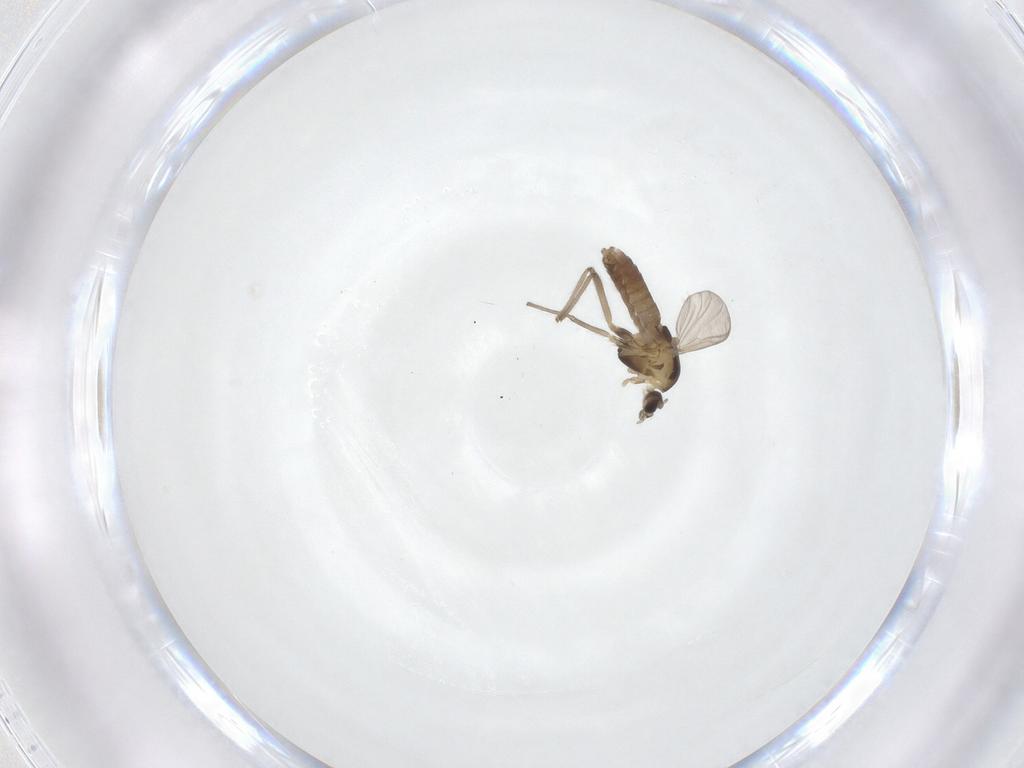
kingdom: Animalia
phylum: Arthropoda
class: Insecta
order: Diptera
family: Chironomidae
